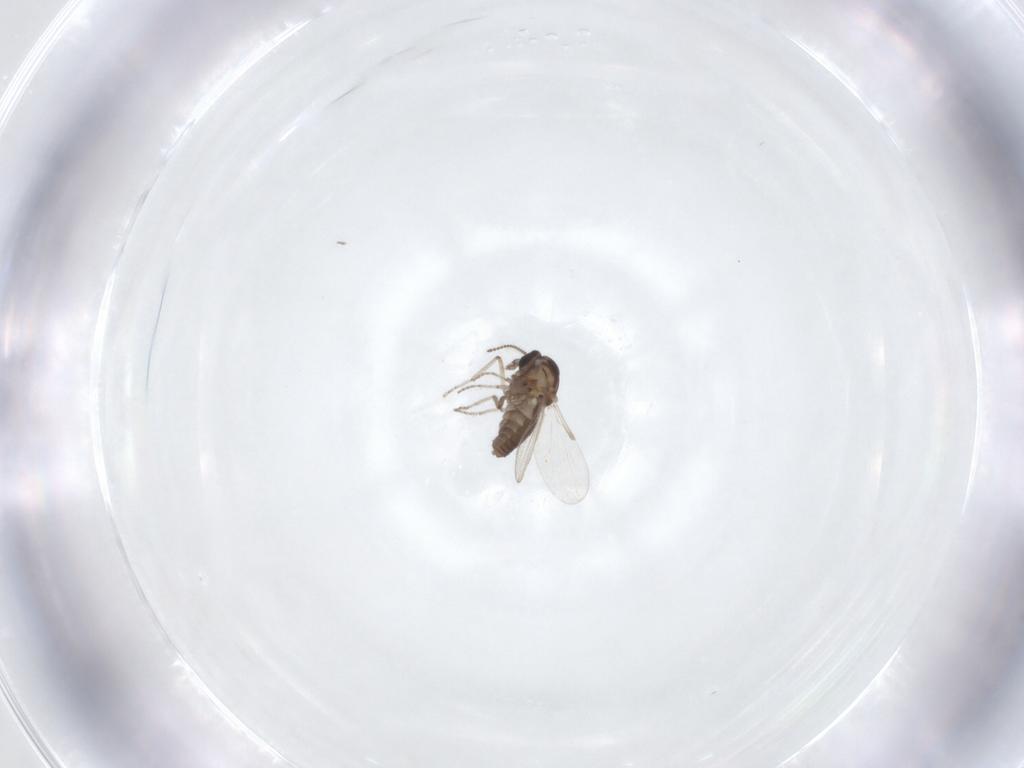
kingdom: Animalia
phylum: Arthropoda
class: Insecta
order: Diptera
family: Ceratopogonidae
